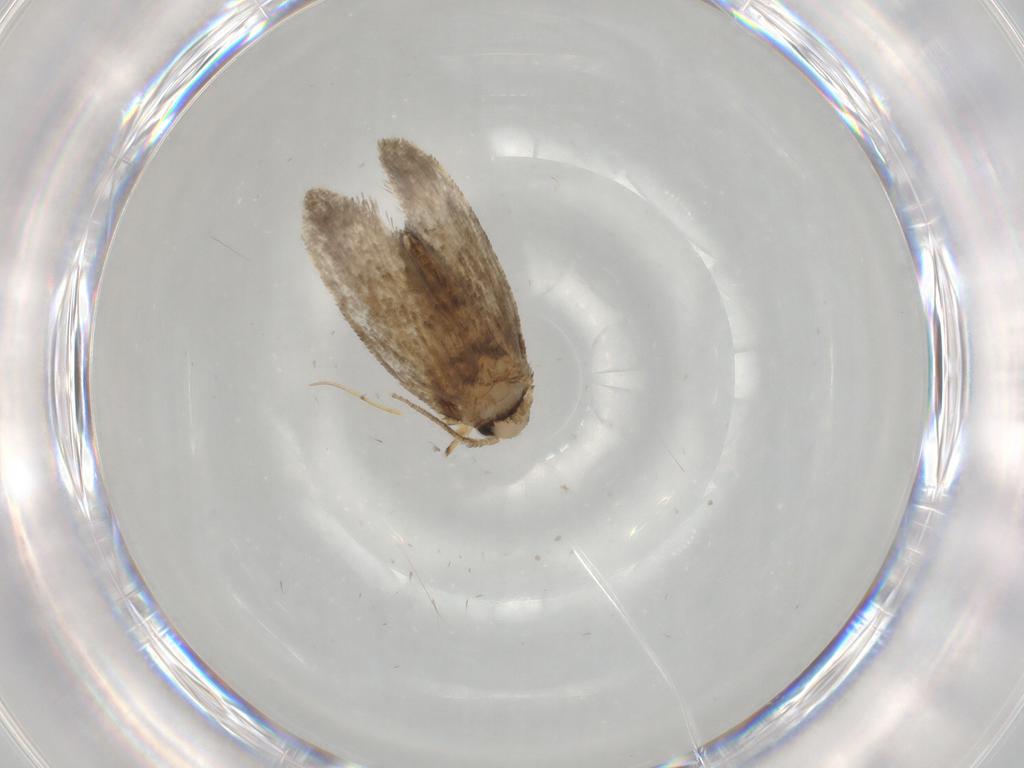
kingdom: Animalia
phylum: Arthropoda
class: Insecta
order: Lepidoptera
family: Psychidae
